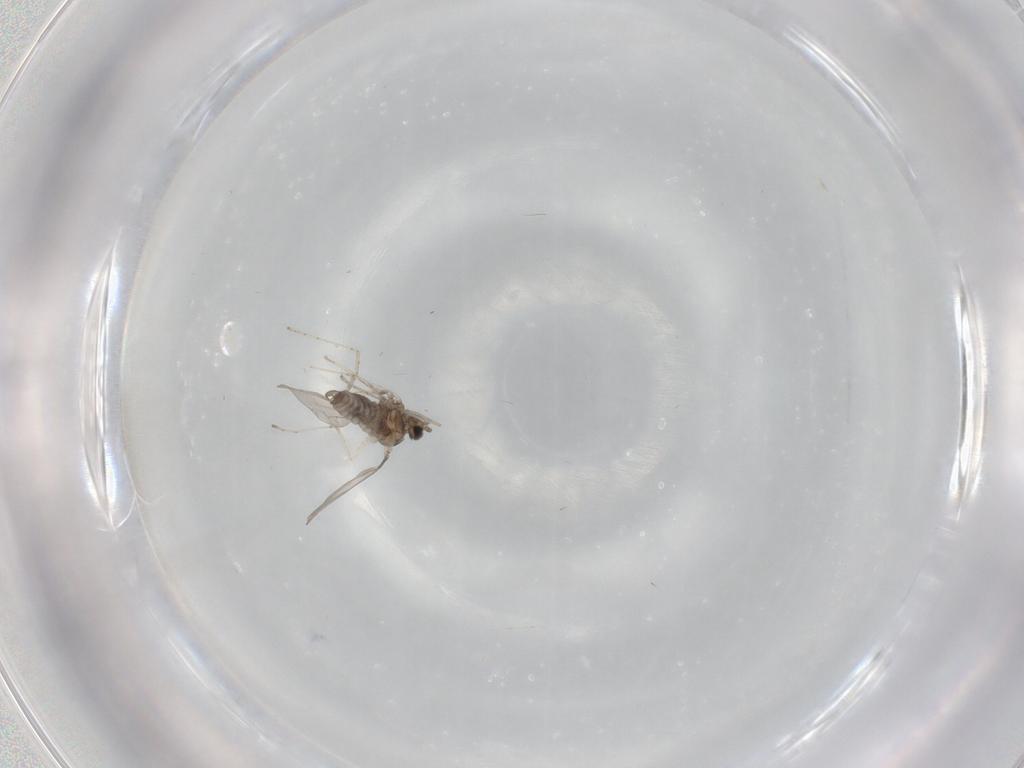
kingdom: Animalia
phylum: Arthropoda
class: Insecta
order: Diptera
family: Cecidomyiidae
